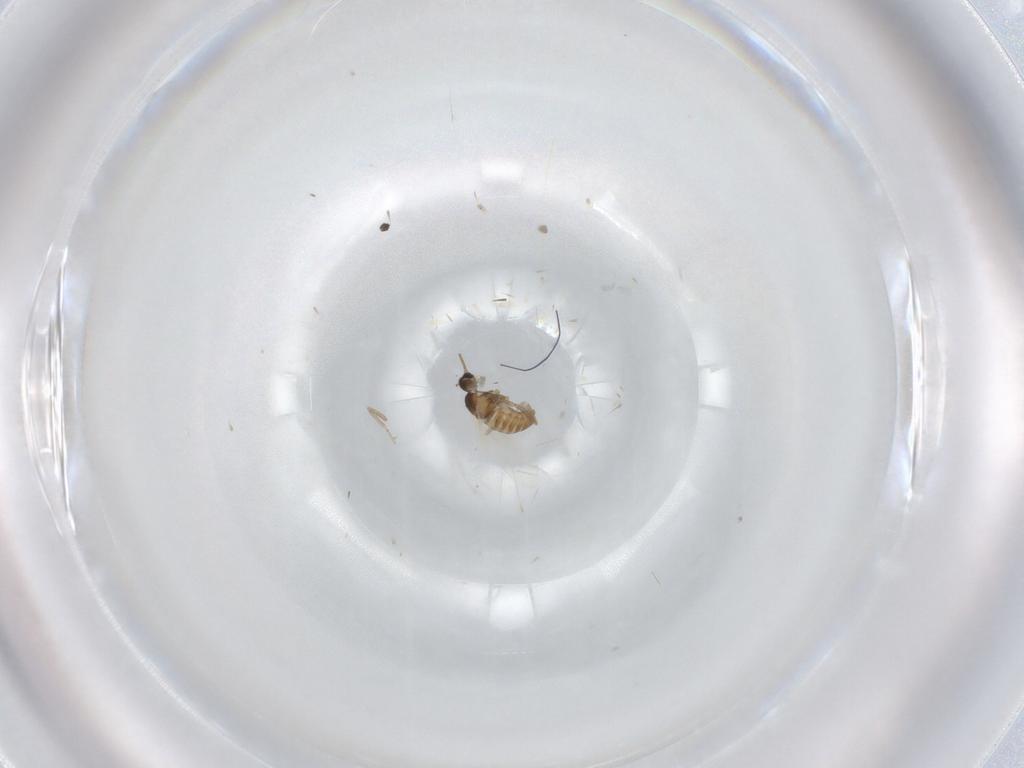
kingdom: Animalia
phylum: Arthropoda
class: Insecta
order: Diptera
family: Cecidomyiidae
